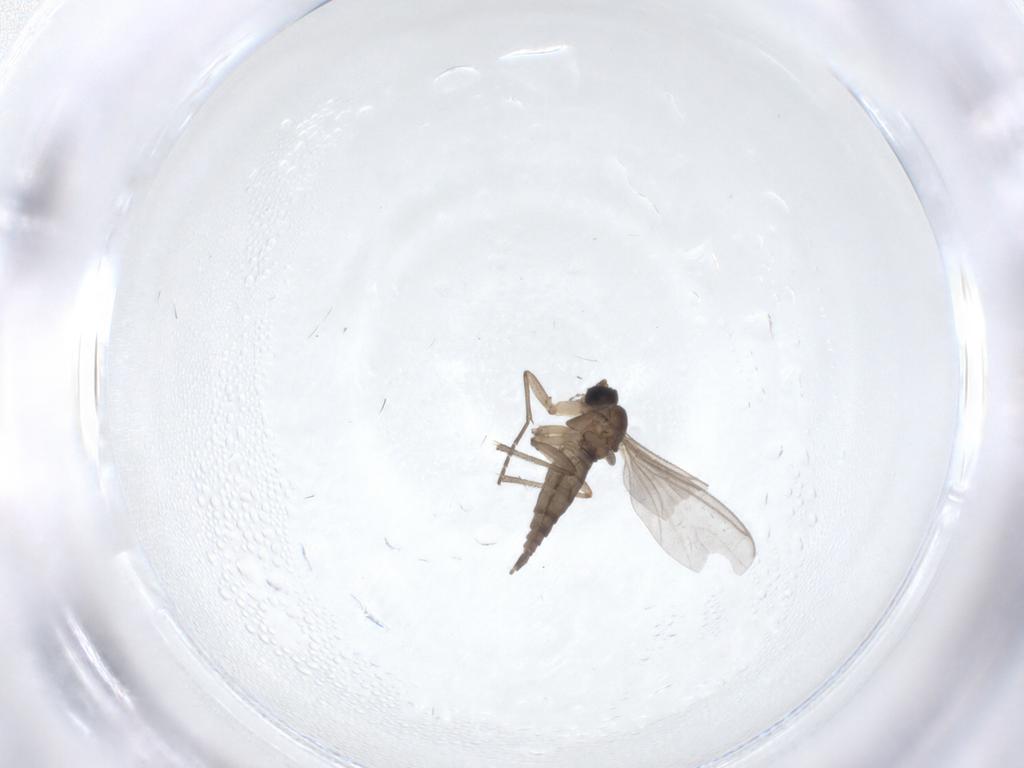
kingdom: Animalia
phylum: Arthropoda
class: Insecta
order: Diptera
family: Sciaridae
